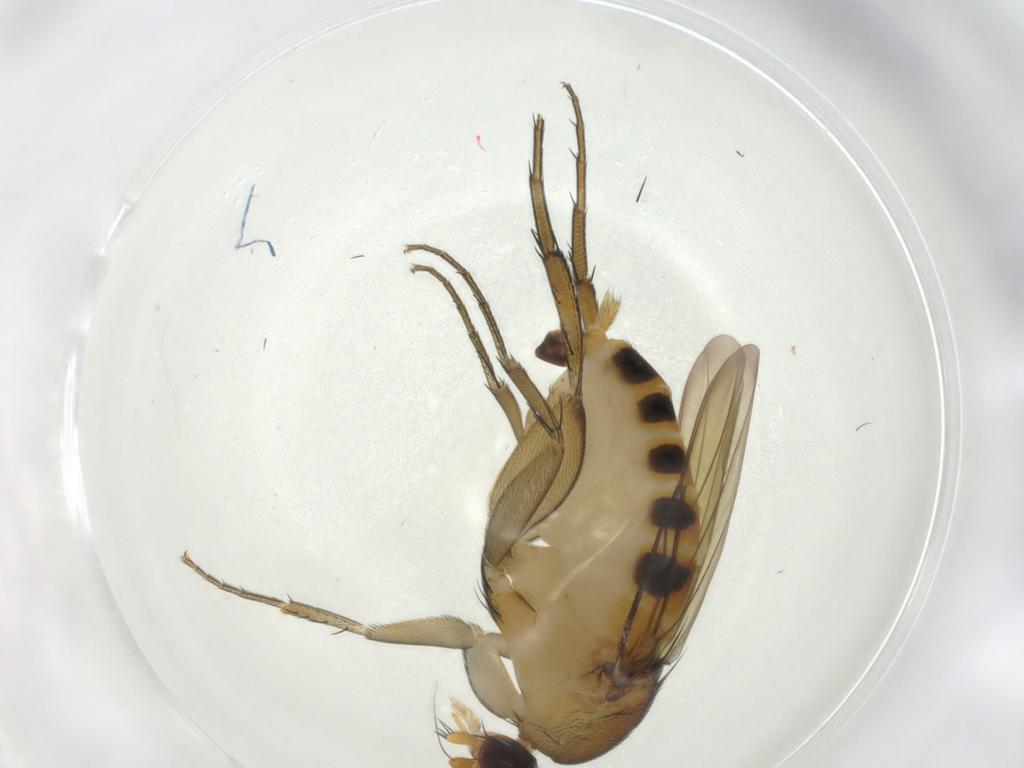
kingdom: Animalia
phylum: Arthropoda
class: Insecta
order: Diptera
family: Phoridae
